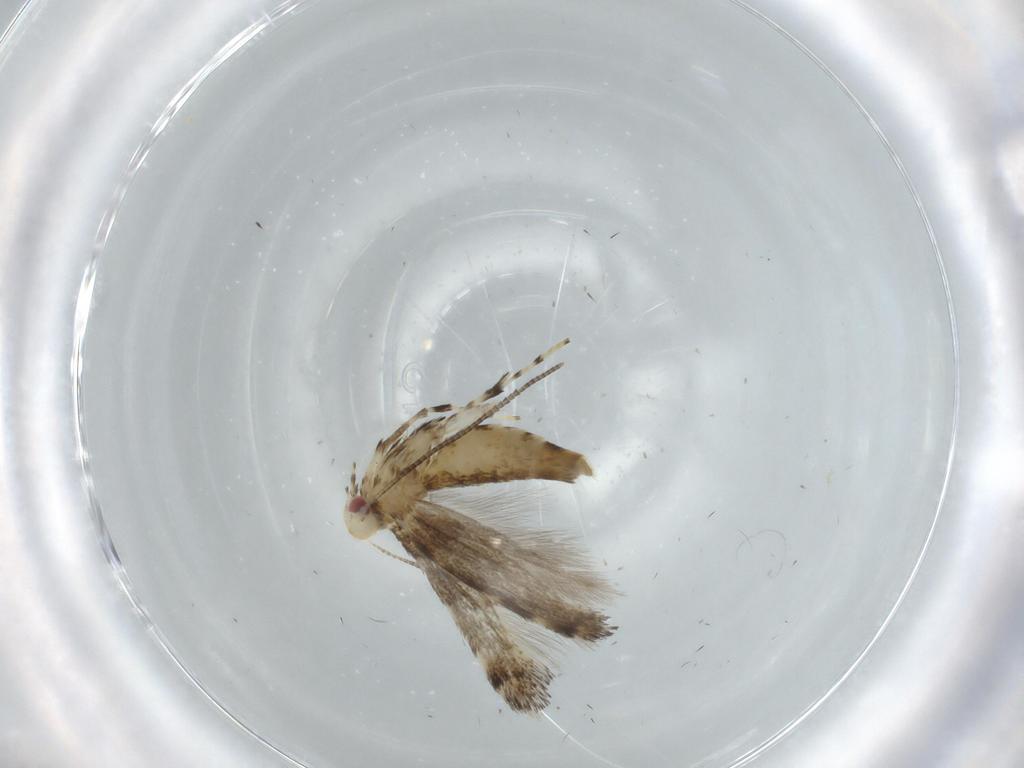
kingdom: Animalia
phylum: Arthropoda
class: Insecta
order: Lepidoptera
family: Gracillariidae
